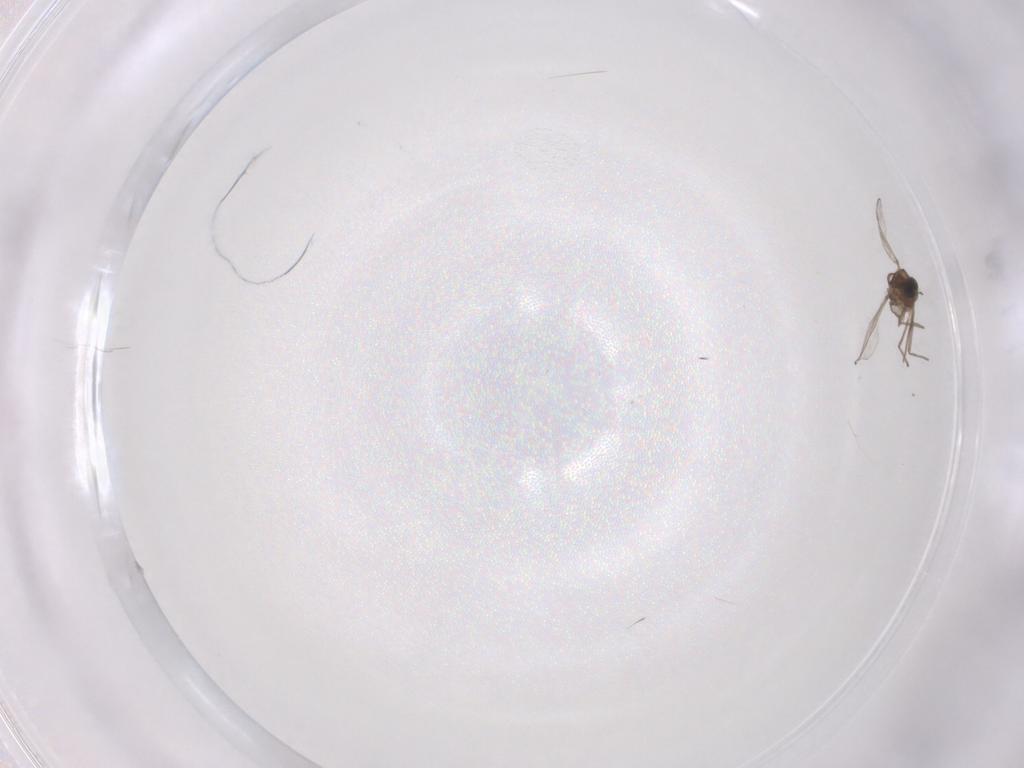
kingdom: Animalia
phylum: Arthropoda
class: Insecta
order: Diptera
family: Chironomidae
